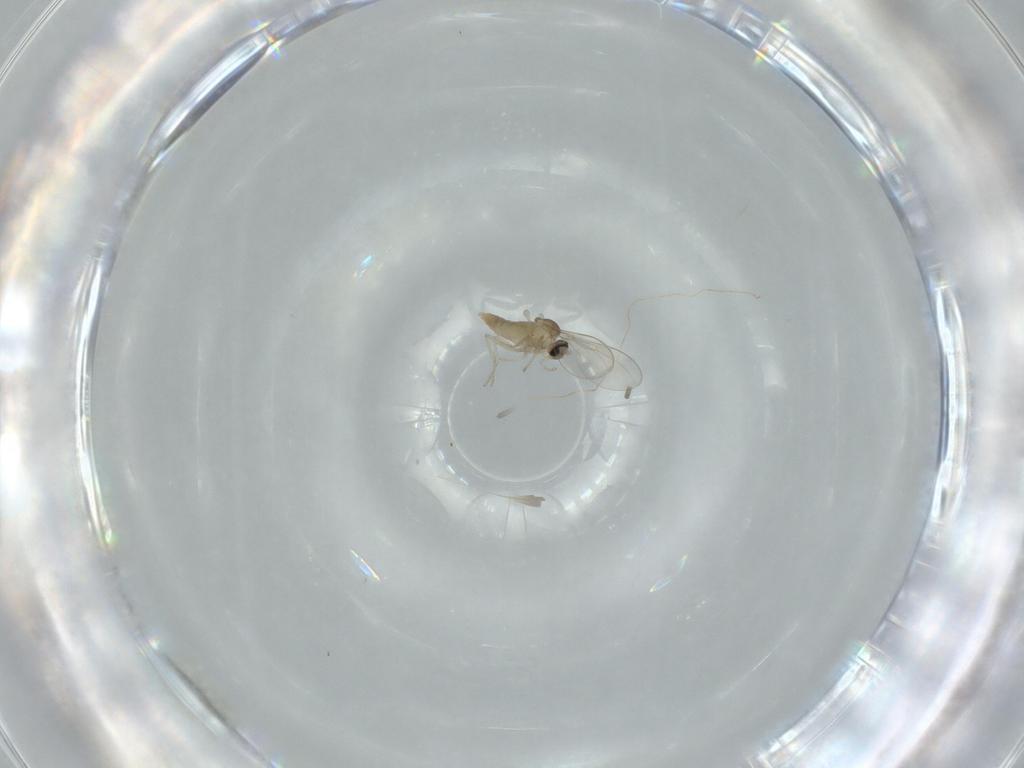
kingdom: Animalia
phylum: Arthropoda
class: Insecta
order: Diptera
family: Cecidomyiidae
